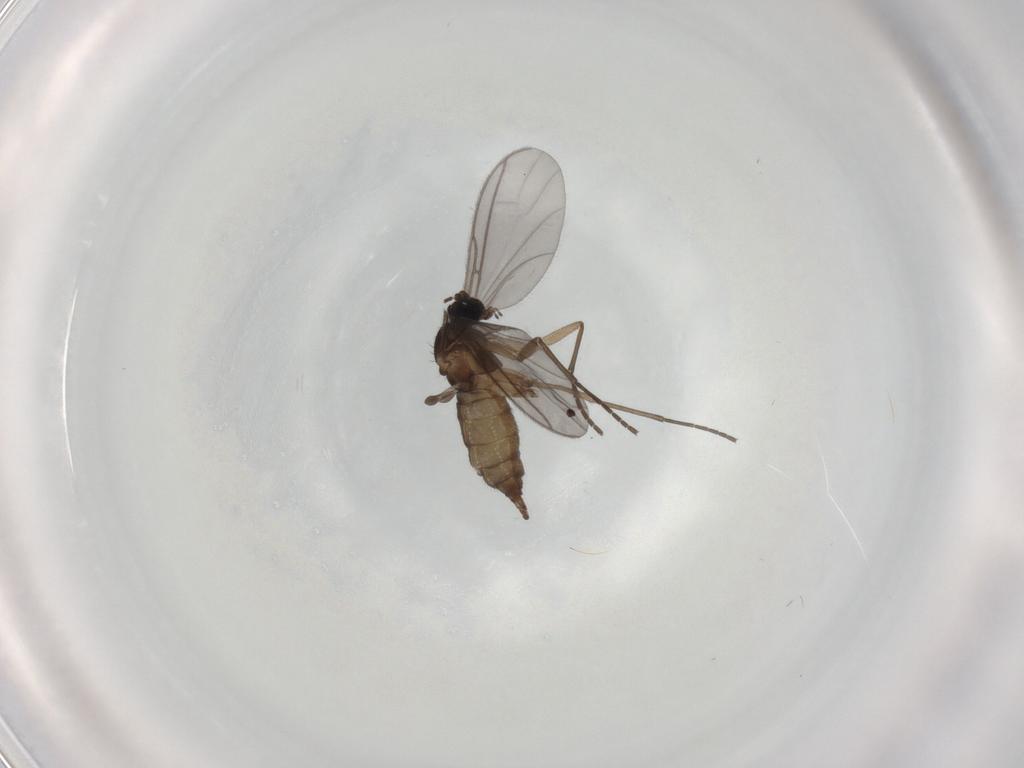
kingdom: Animalia
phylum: Arthropoda
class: Insecta
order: Diptera
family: Sciaridae
